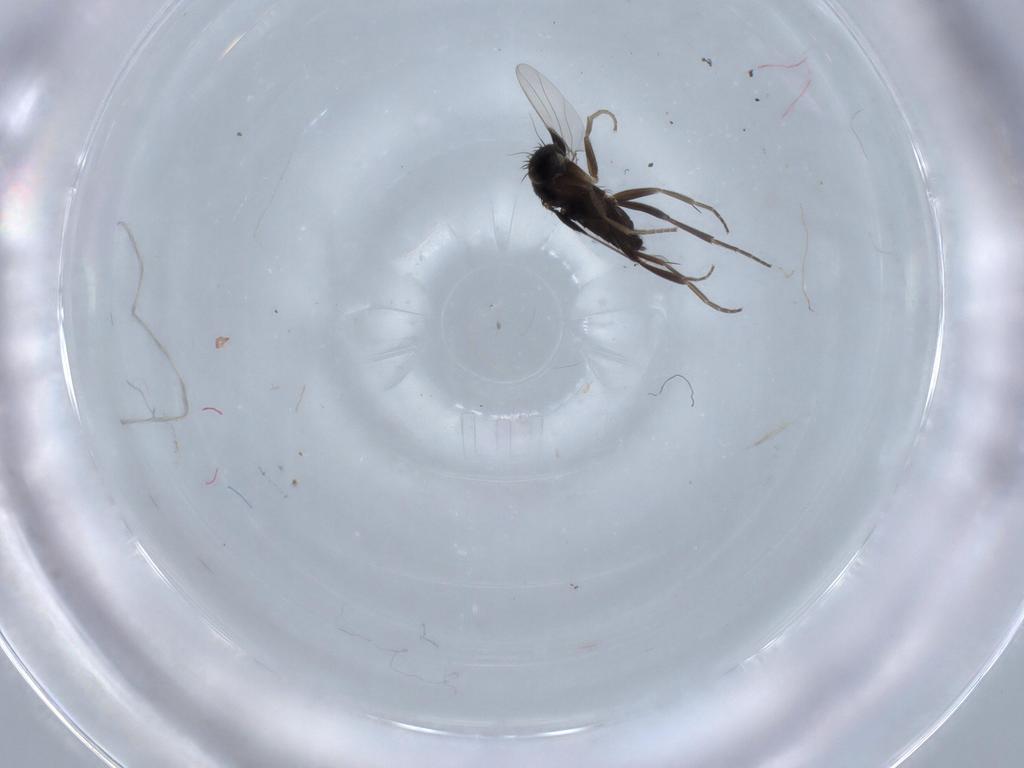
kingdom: Animalia
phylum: Arthropoda
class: Insecta
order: Diptera
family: Phoridae
